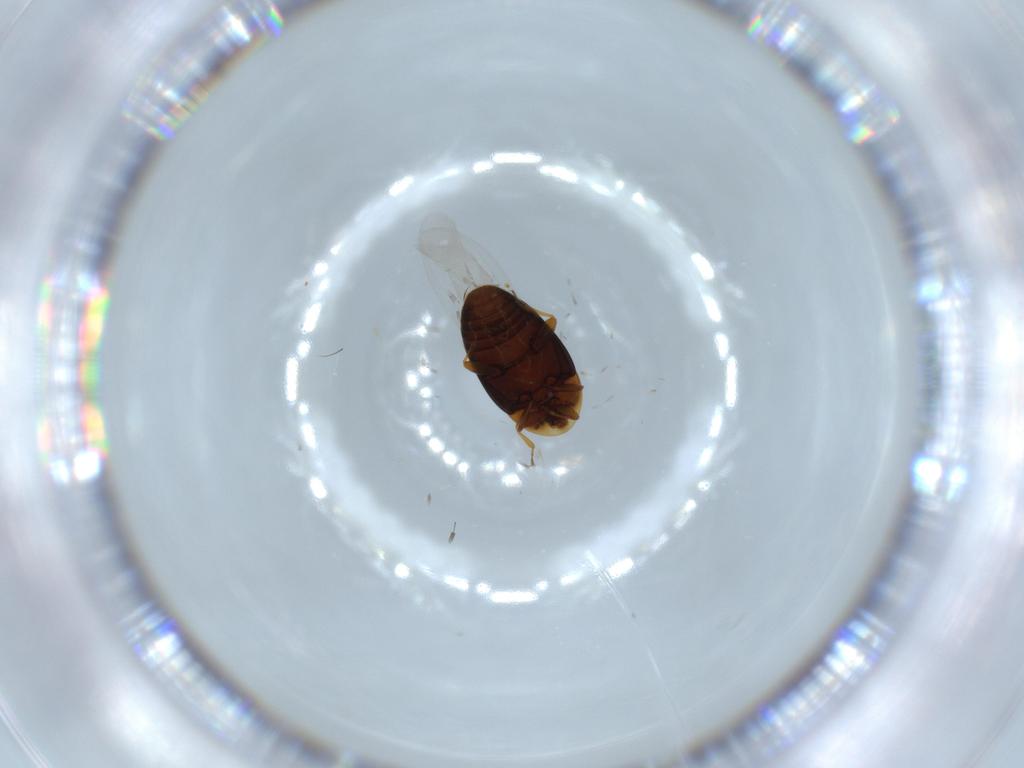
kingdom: Animalia
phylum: Arthropoda
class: Insecta
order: Coleoptera
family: Corylophidae
